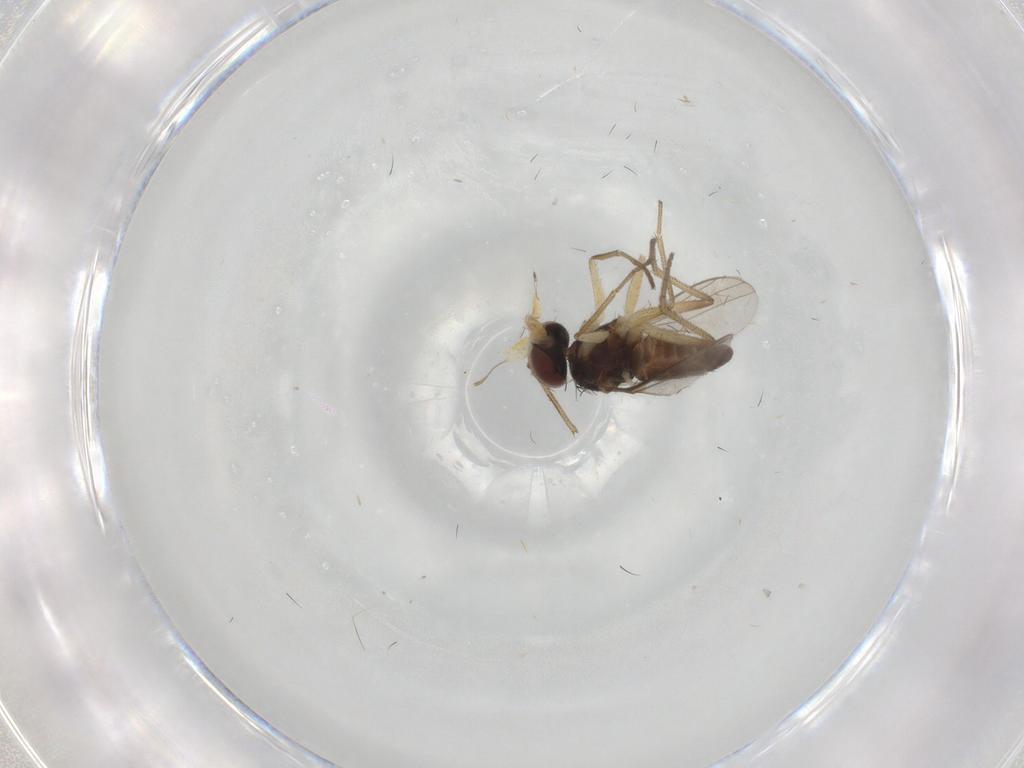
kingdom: Animalia
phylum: Arthropoda
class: Insecta
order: Diptera
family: Dolichopodidae
